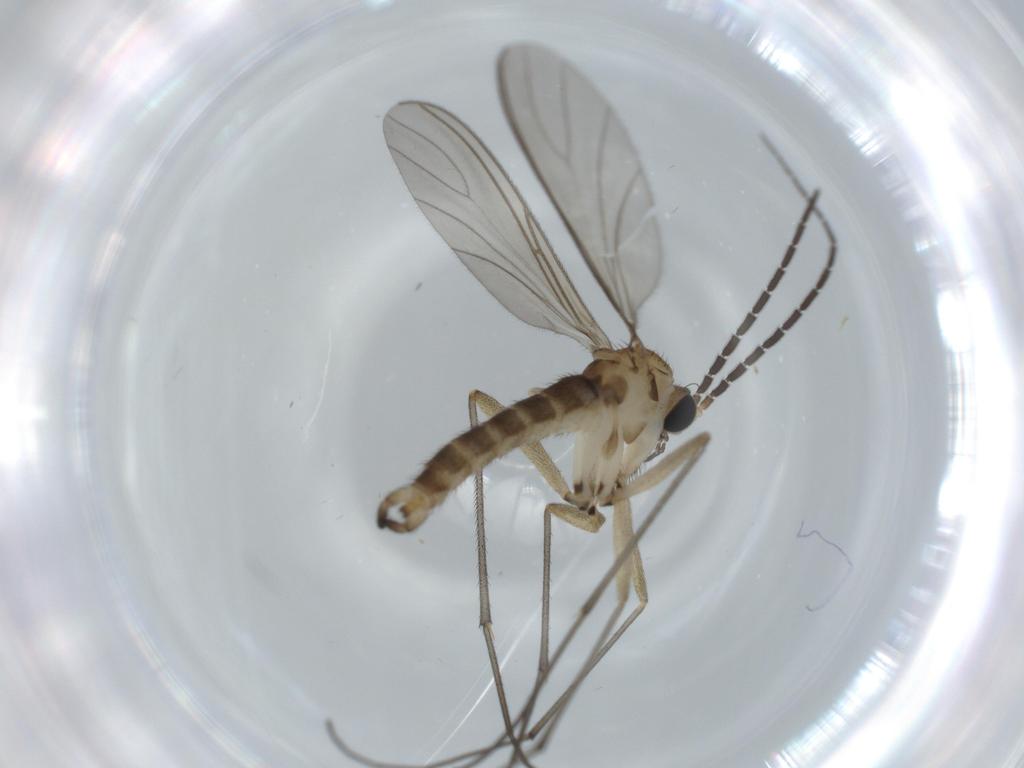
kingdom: Animalia
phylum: Arthropoda
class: Insecta
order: Diptera
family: Sciaridae
